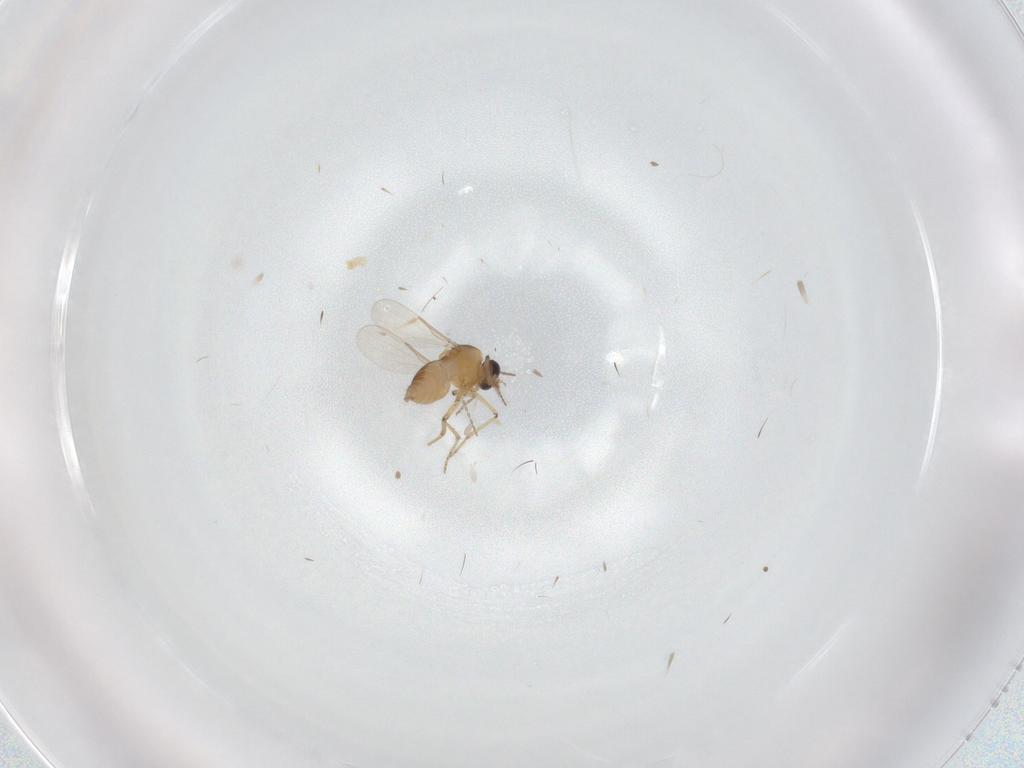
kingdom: Animalia
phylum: Arthropoda
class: Insecta
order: Diptera
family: Ceratopogonidae
